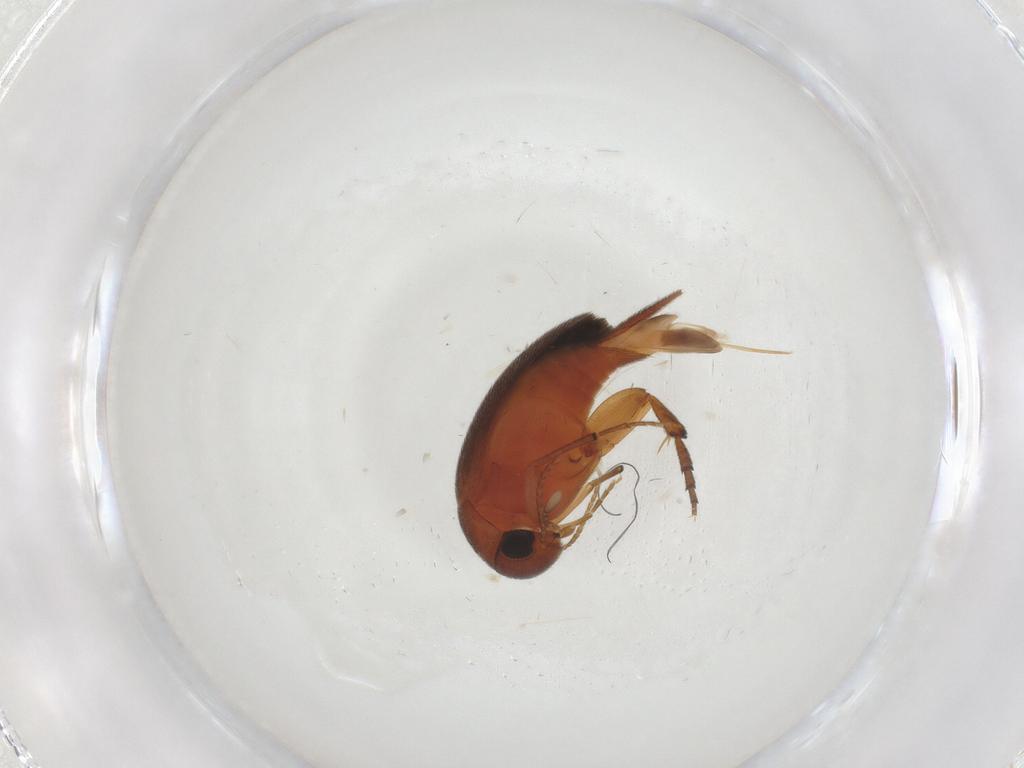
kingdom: Animalia
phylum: Arthropoda
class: Insecta
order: Coleoptera
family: Mordellidae
